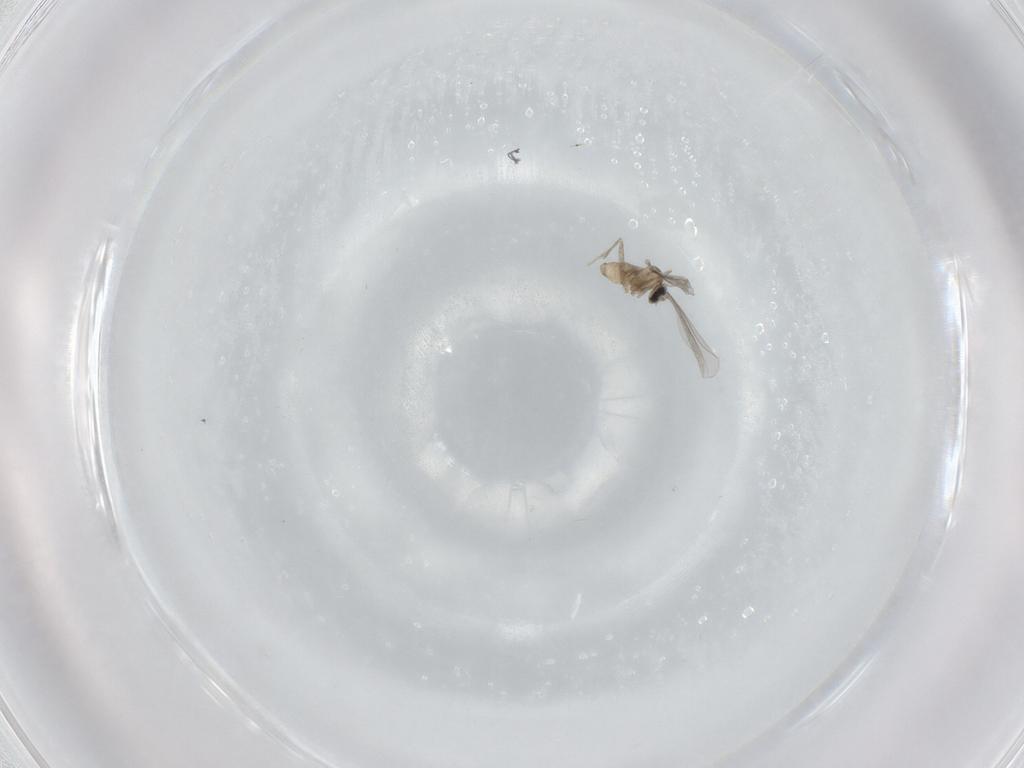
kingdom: Animalia
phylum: Arthropoda
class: Insecta
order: Diptera
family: Cecidomyiidae
